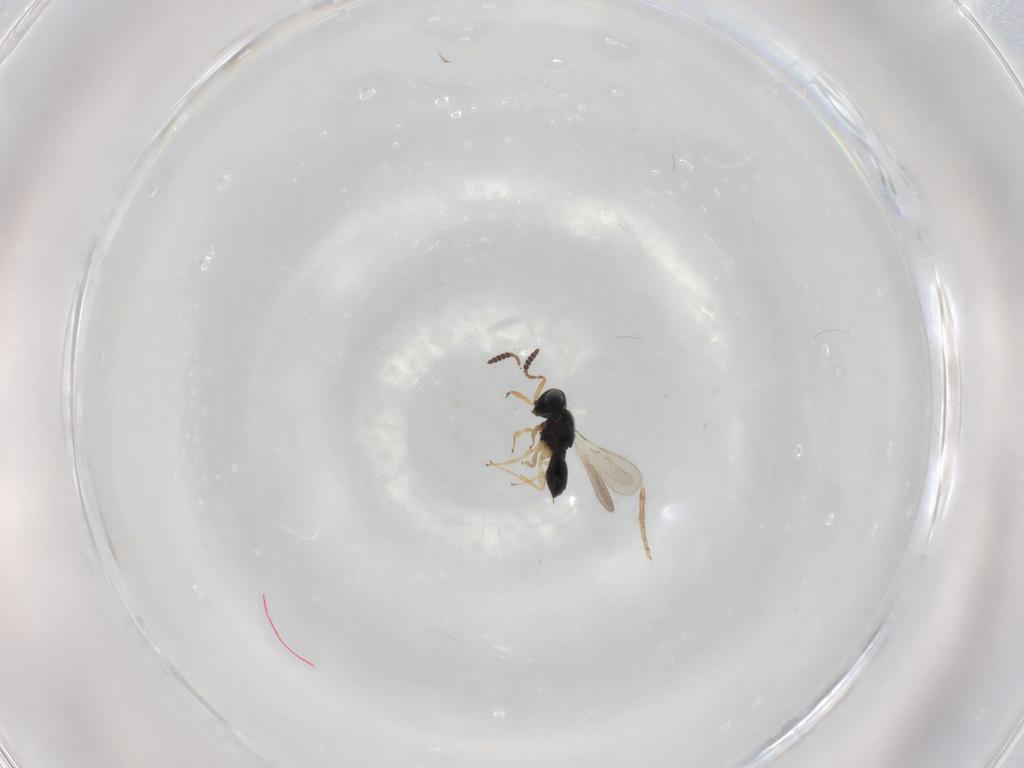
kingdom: Animalia
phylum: Arthropoda
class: Insecta
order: Hymenoptera
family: Scelionidae
